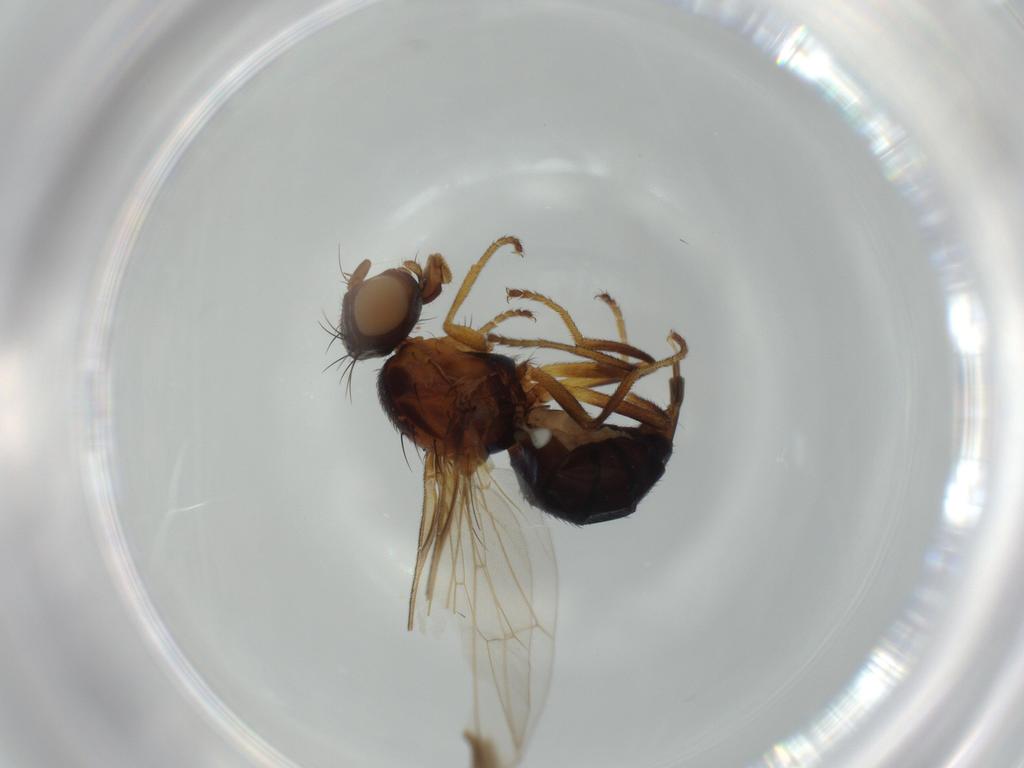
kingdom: Animalia
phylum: Arthropoda
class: Insecta
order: Diptera
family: Piophilidae
